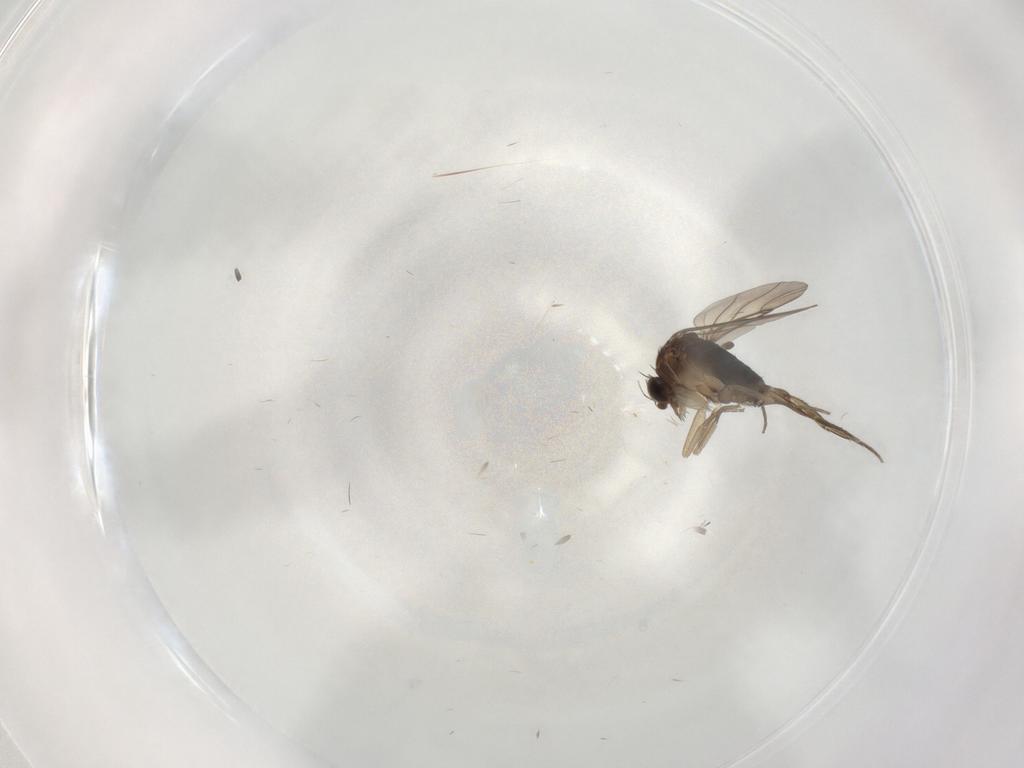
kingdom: Animalia
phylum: Arthropoda
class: Insecta
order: Diptera
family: Phoridae
